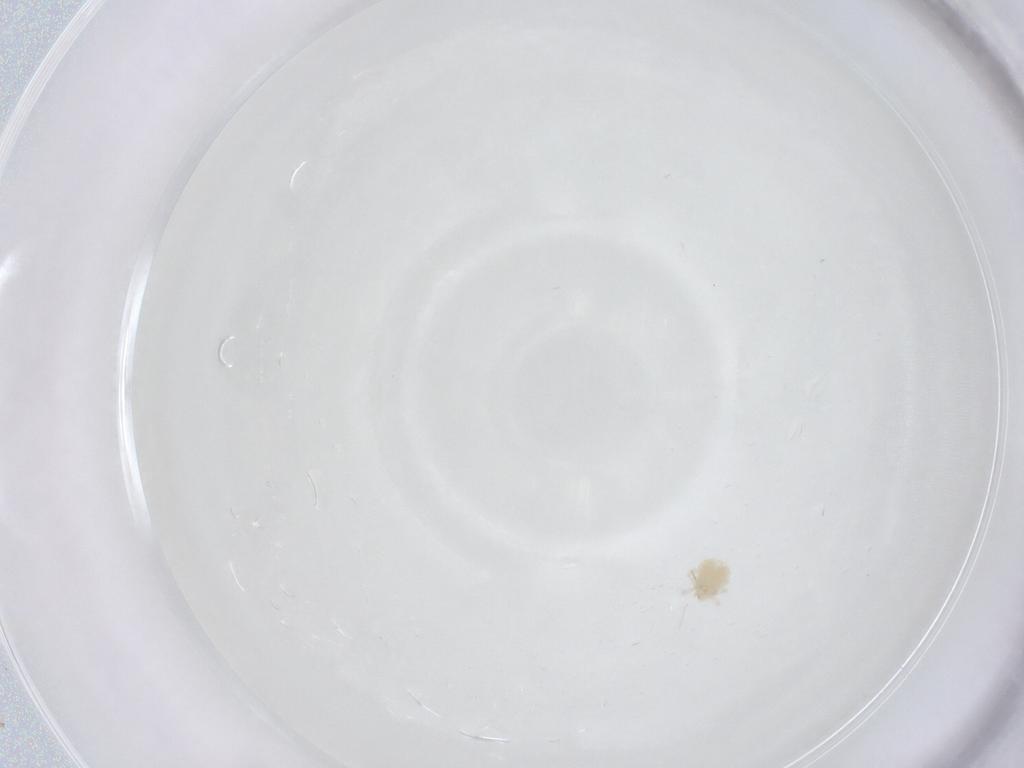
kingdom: Animalia
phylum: Arthropoda
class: Arachnida
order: Trombidiformes
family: Anystidae
